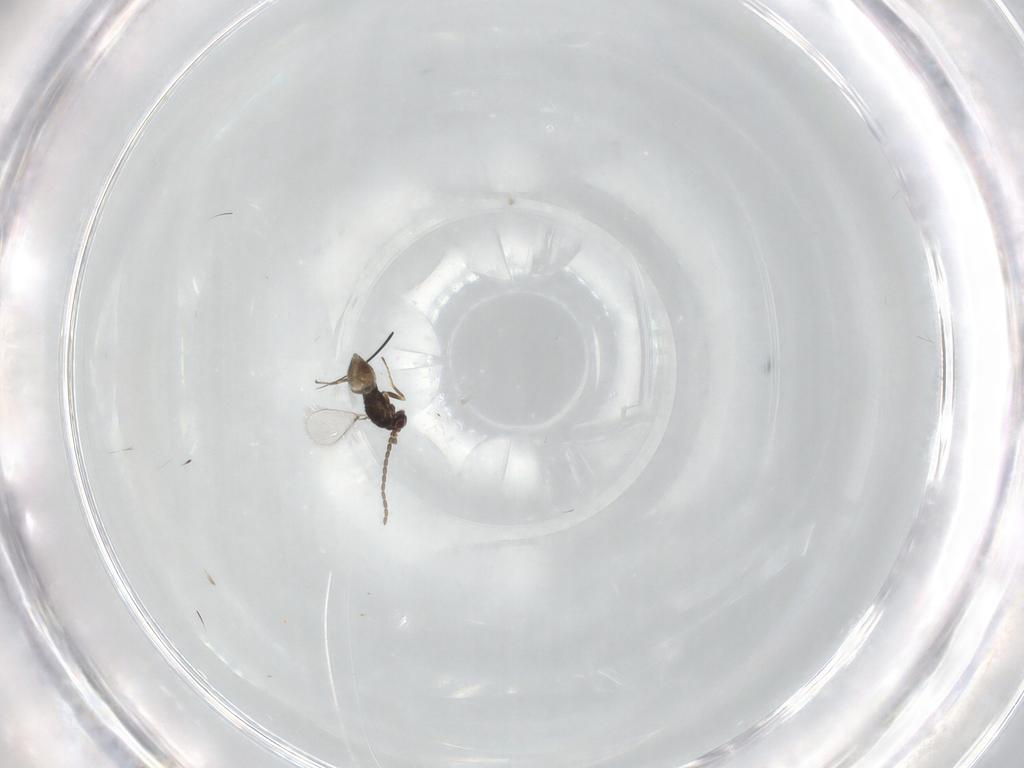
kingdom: Animalia
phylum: Arthropoda
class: Insecta
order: Hymenoptera
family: Mymaridae
